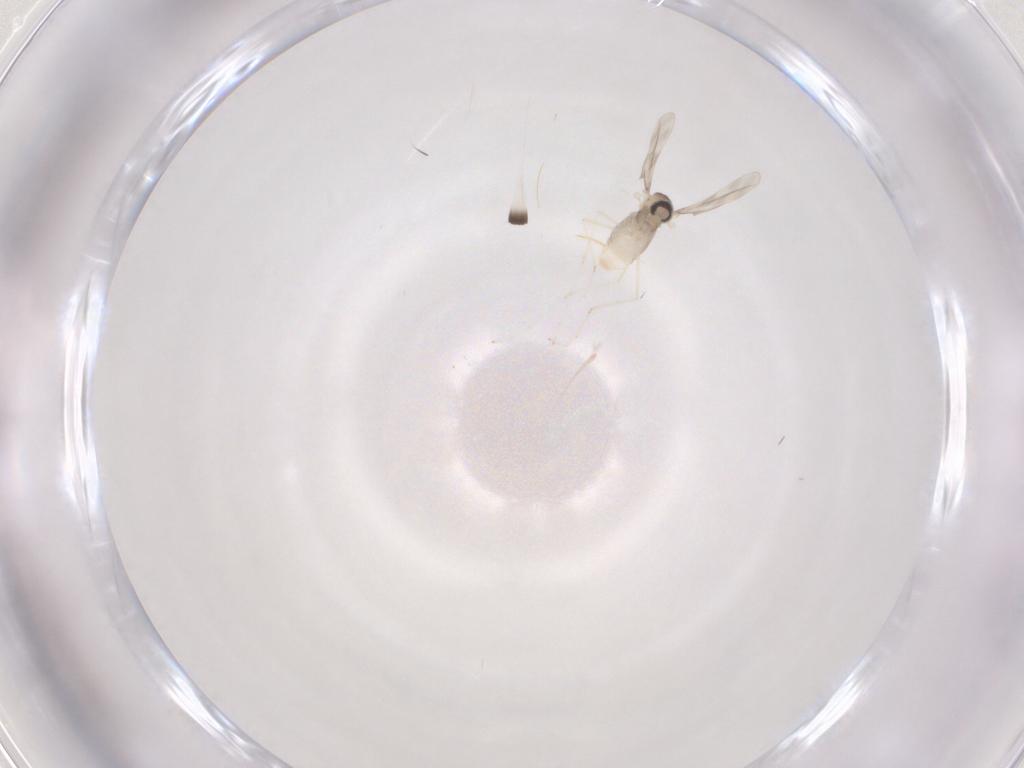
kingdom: Animalia
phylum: Arthropoda
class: Insecta
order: Diptera
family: Cecidomyiidae
